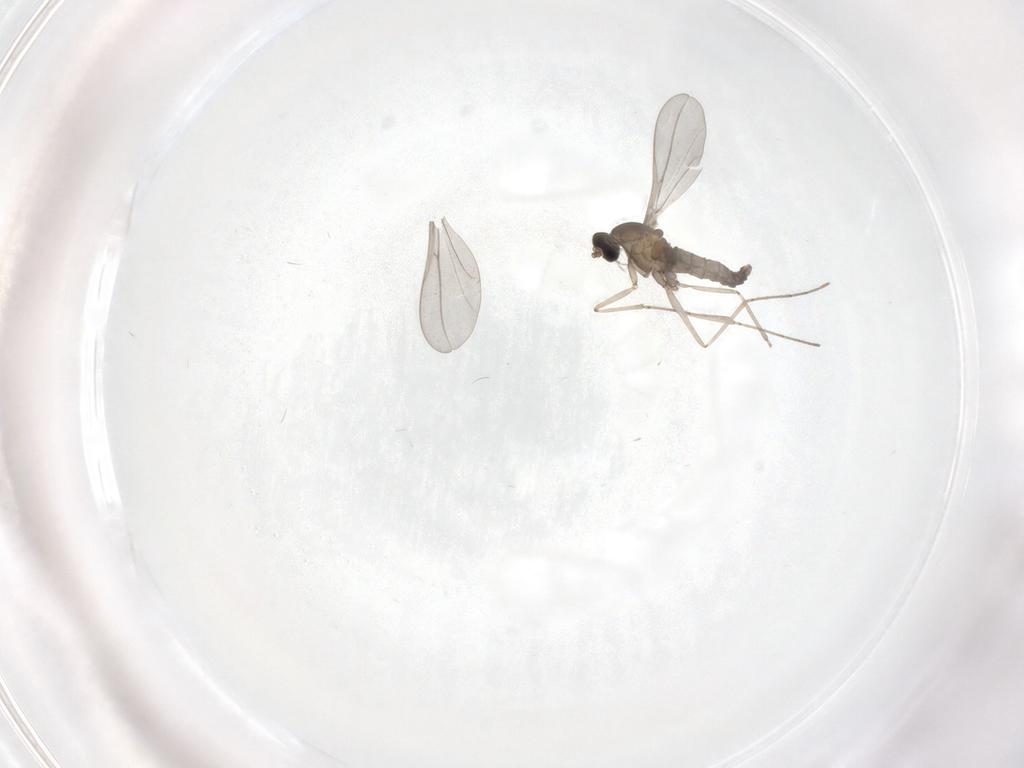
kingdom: Animalia
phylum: Arthropoda
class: Insecta
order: Diptera
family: Cecidomyiidae
